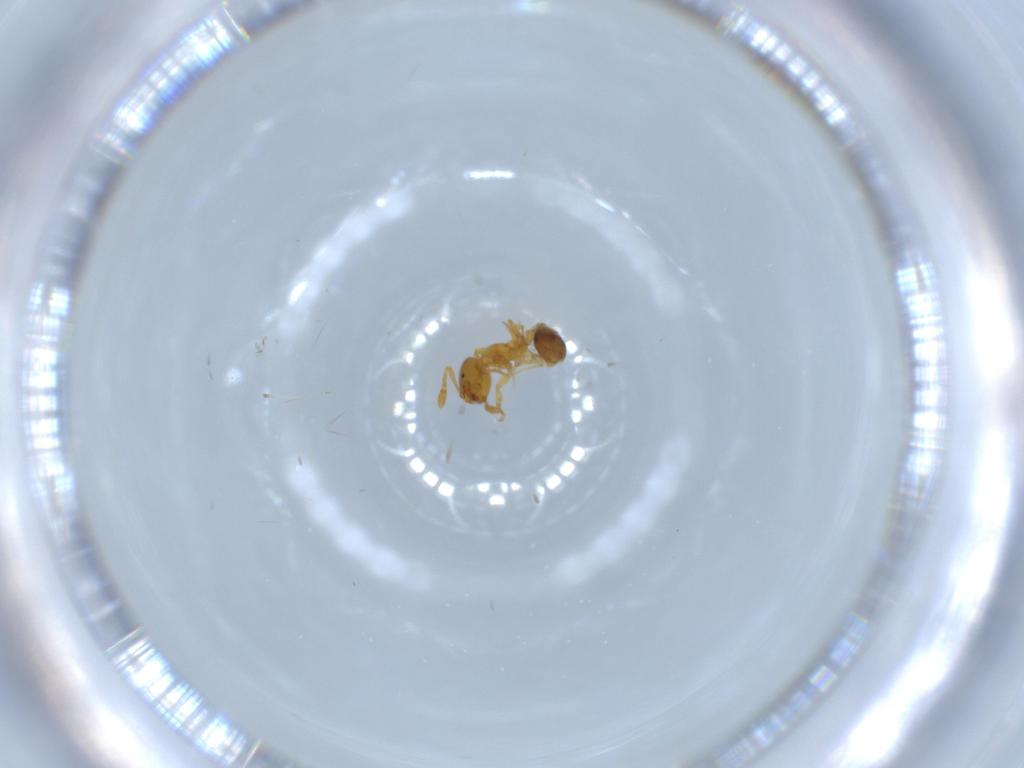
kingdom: Animalia
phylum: Arthropoda
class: Insecta
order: Hymenoptera
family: Formicidae
